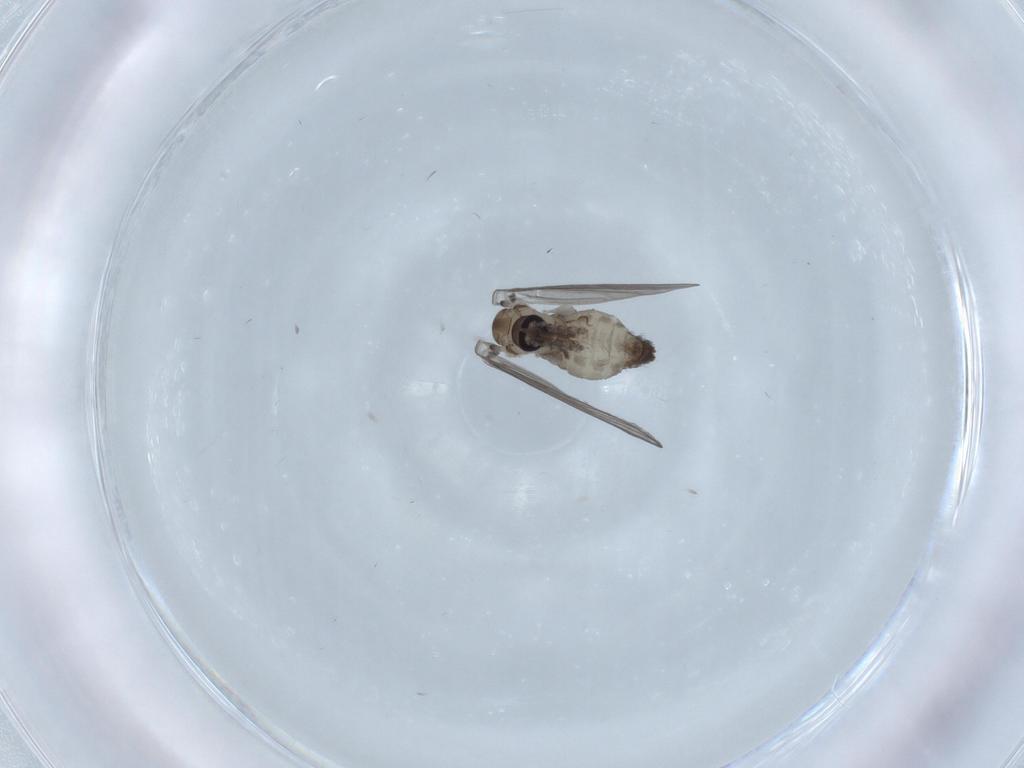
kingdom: Animalia
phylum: Arthropoda
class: Insecta
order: Diptera
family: Psychodidae
